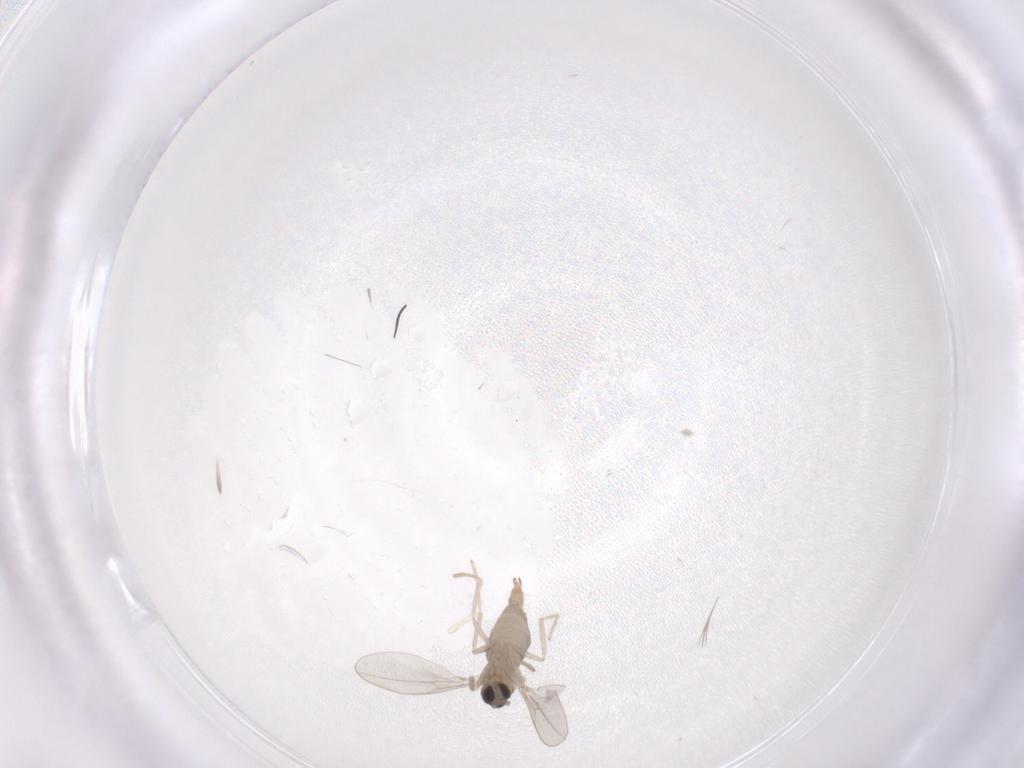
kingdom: Animalia
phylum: Arthropoda
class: Insecta
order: Diptera
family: Cecidomyiidae
